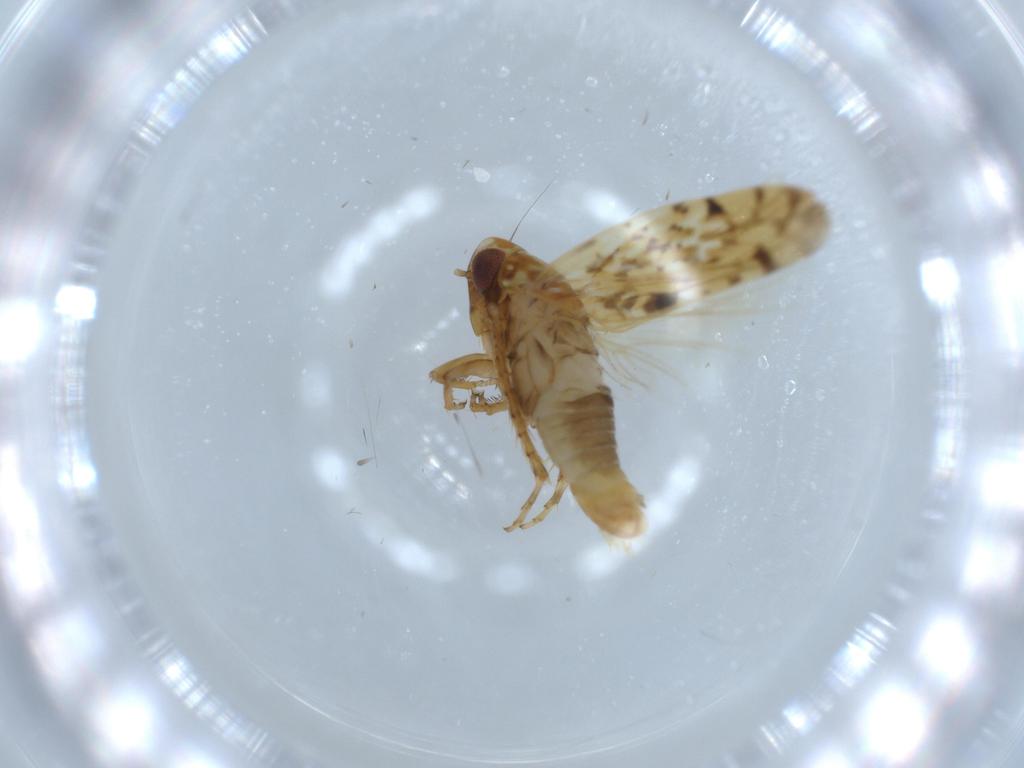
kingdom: Animalia
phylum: Arthropoda
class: Insecta
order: Hemiptera
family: Cicadellidae
